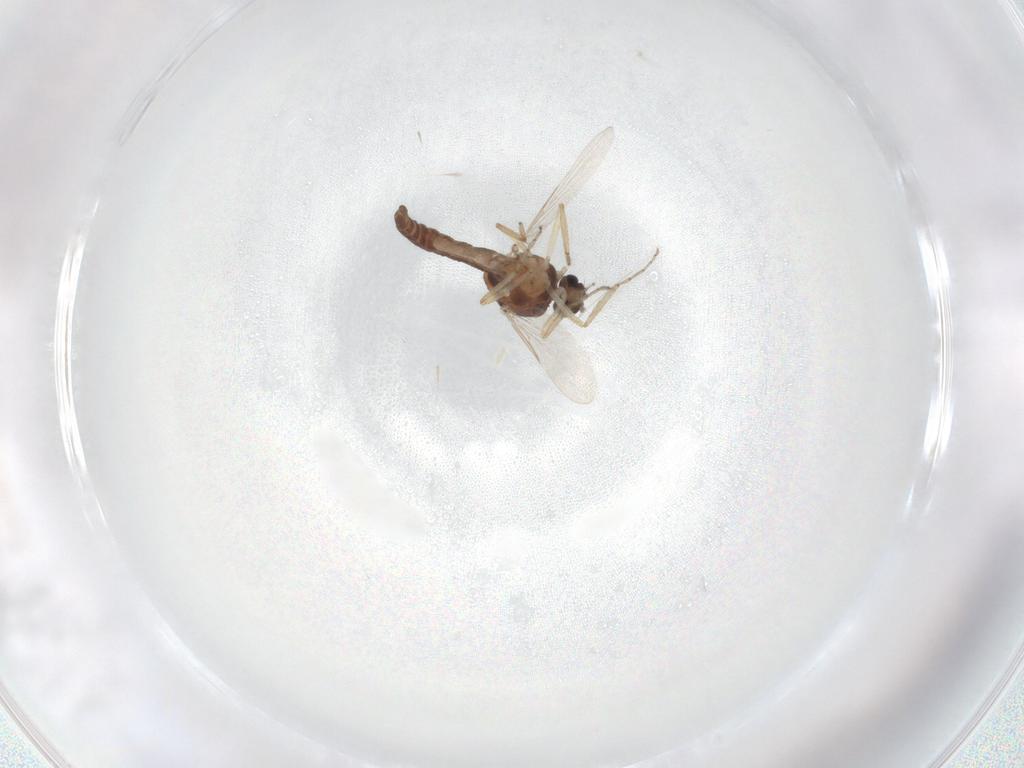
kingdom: Animalia
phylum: Arthropoda
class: Insecta
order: Diptera
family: Ceratopogonidae
